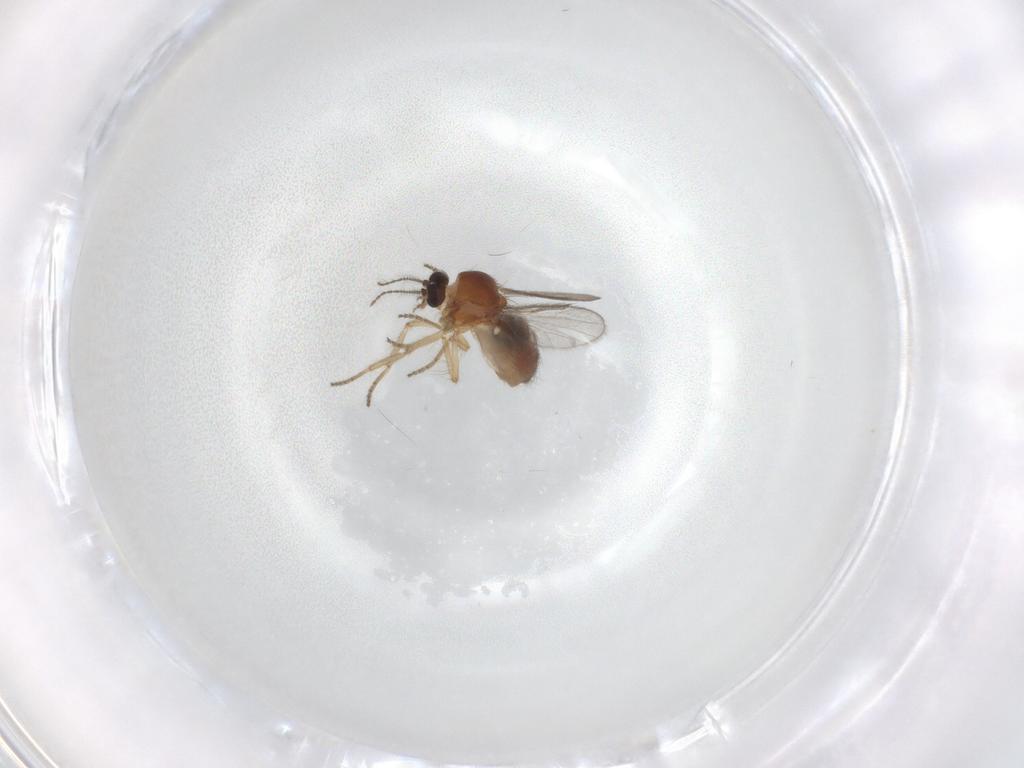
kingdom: Animalia
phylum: Arthropoda
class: Insecta
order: Diptera
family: Ceratopogonidae
